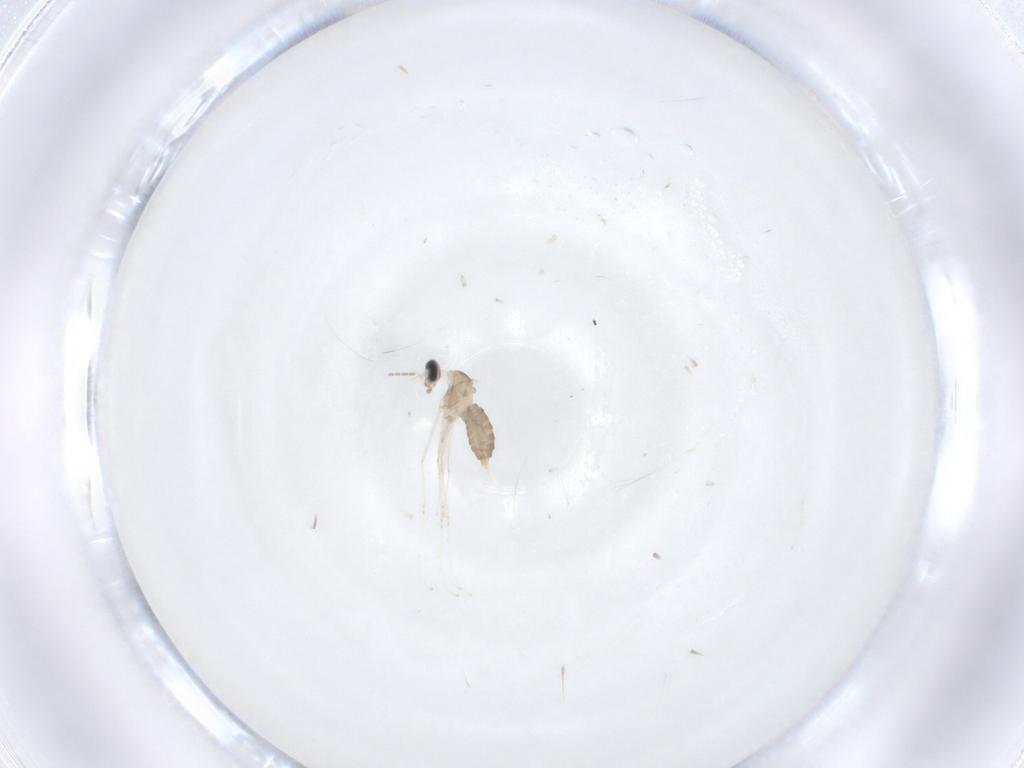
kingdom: Animalia
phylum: Arthropoda
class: Insecta
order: Diptera
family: Cecidomyiidae
